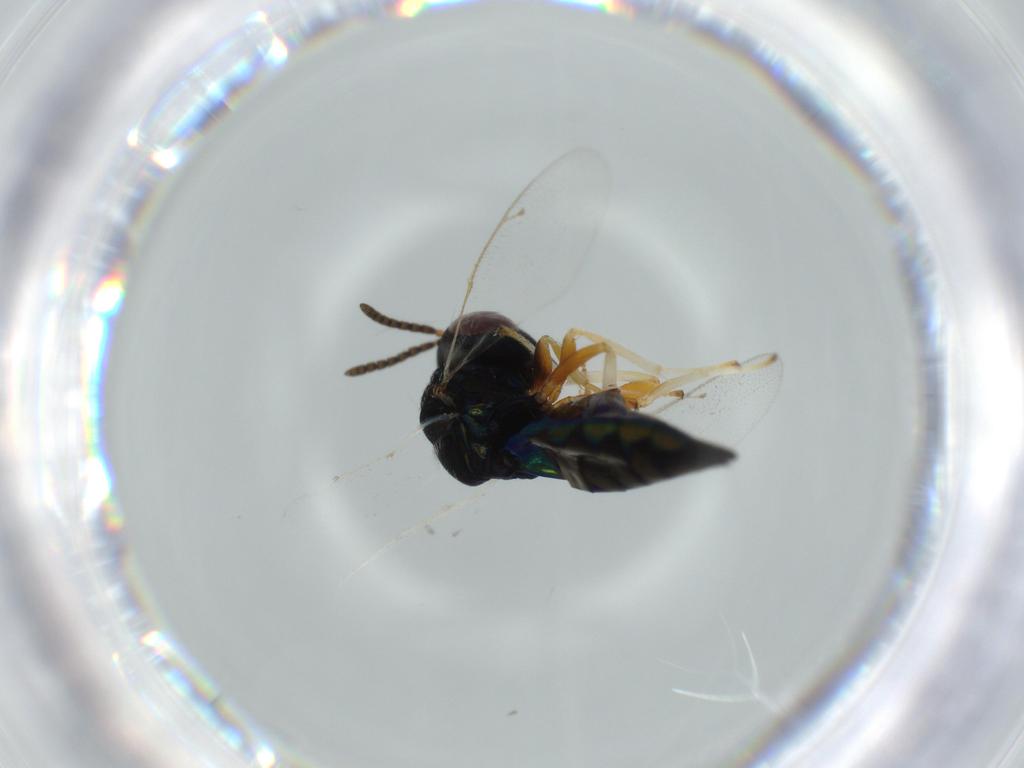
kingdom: Animalia
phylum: Arthropoda
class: Insecta
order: Hymenoptera
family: Pteromalidae
